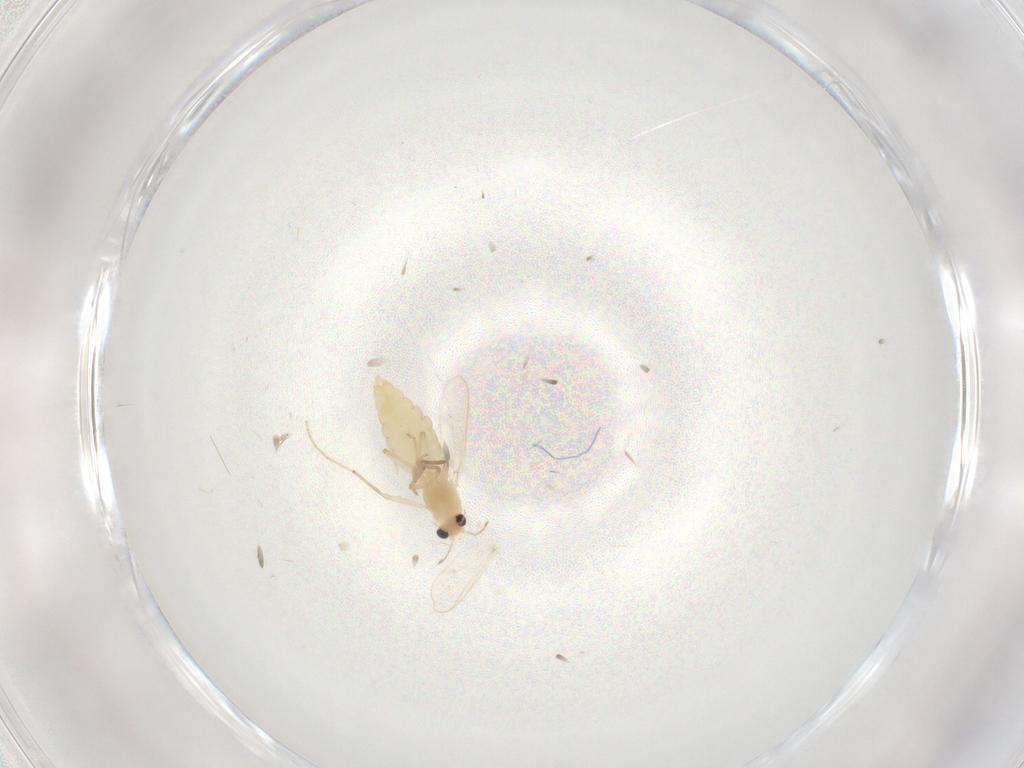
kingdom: Animalia
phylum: Arthropoda
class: Insecta
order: Diptera
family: Chironomidae
